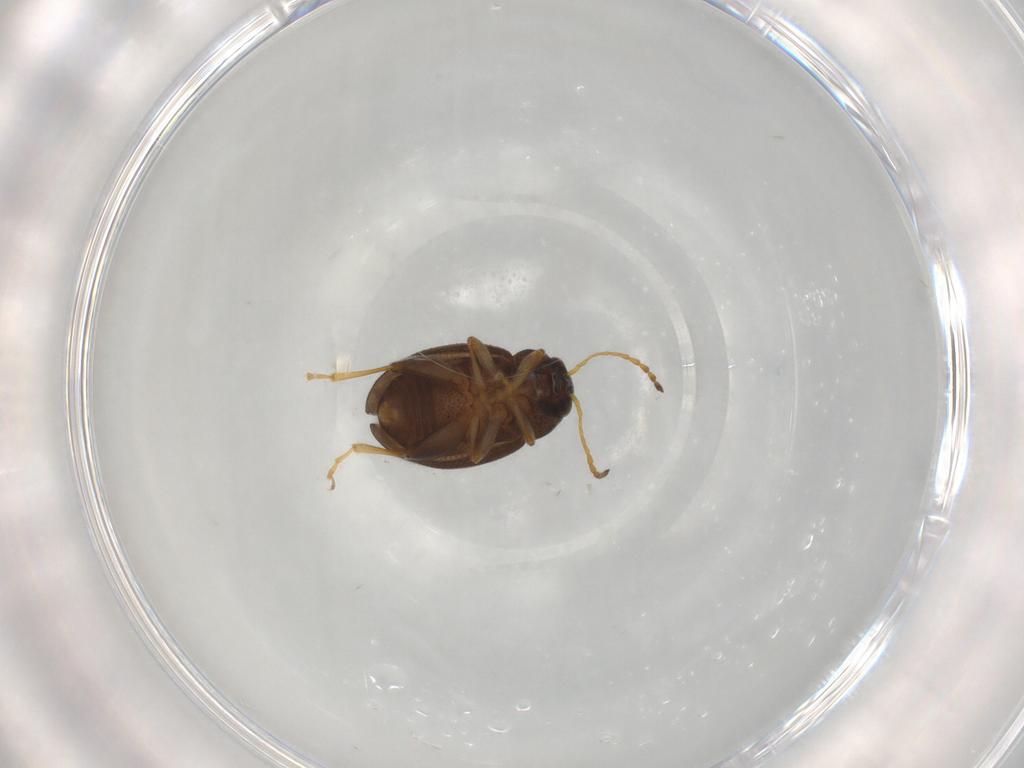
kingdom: Animalia
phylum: Arthropoda
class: Insecta
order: Coleoptera
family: Chrysomelidae
